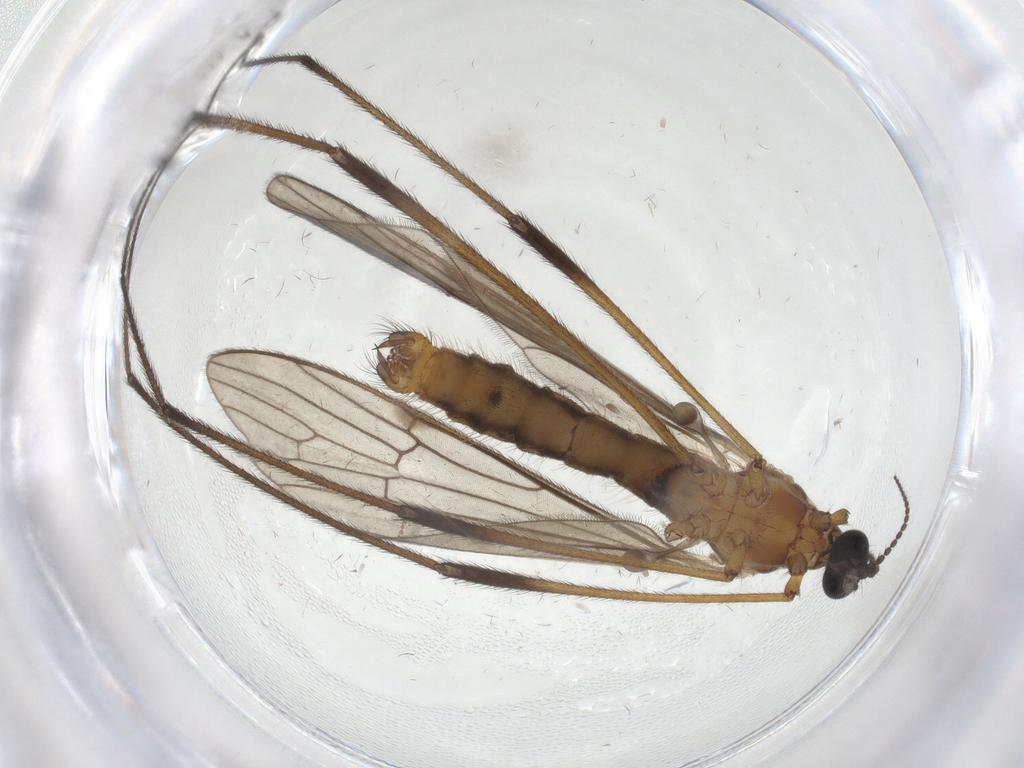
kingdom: Animalia
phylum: Arthropoda
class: Insecta
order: Diptera
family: Limoniidae
